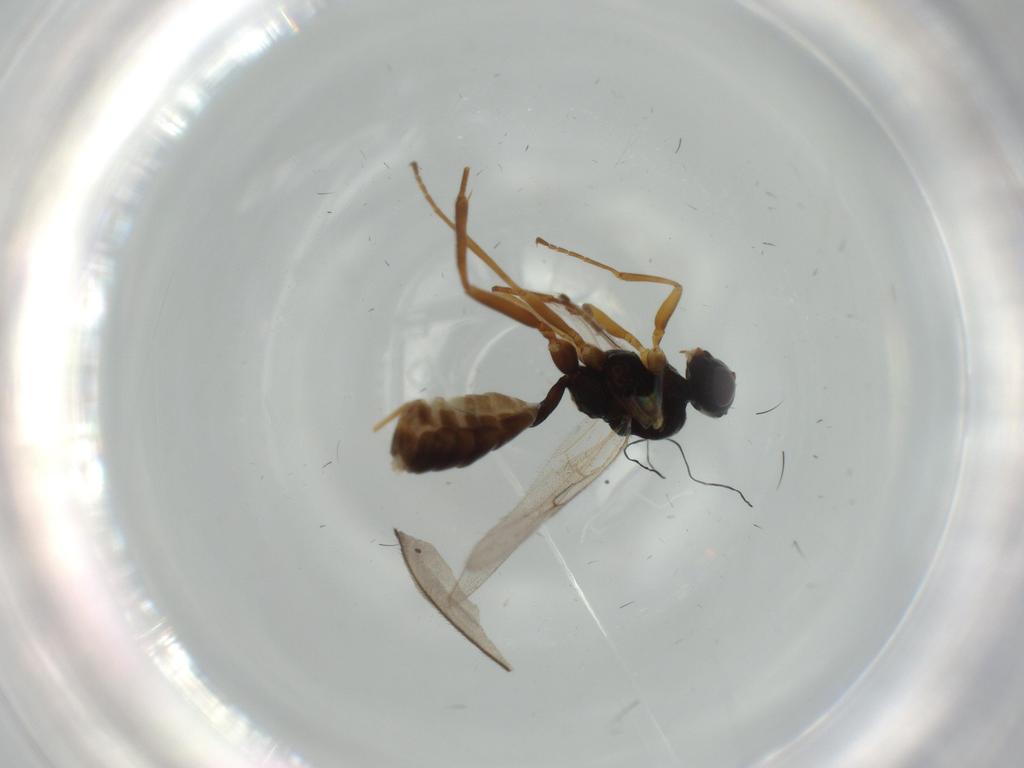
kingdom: Animalia
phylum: Arthropoda
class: Insecta
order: Hymenoptera
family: Ichneumonidae
